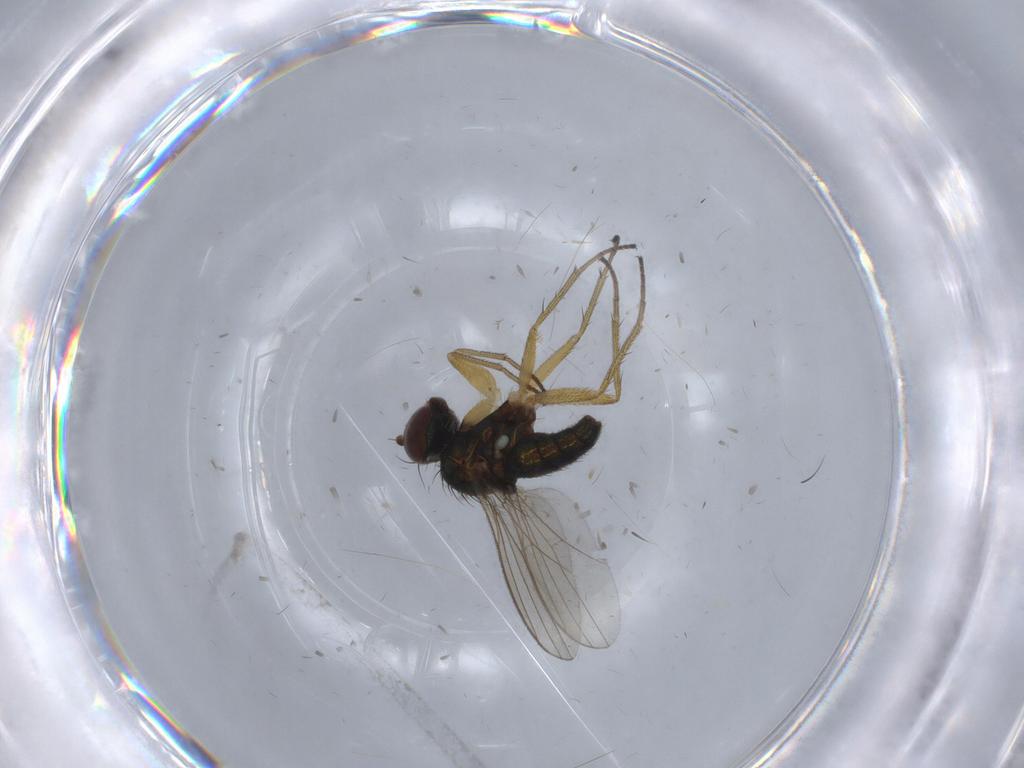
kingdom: Animalia
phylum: Arthropoda
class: Insecta
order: Diptera
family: Dolichopodidae
